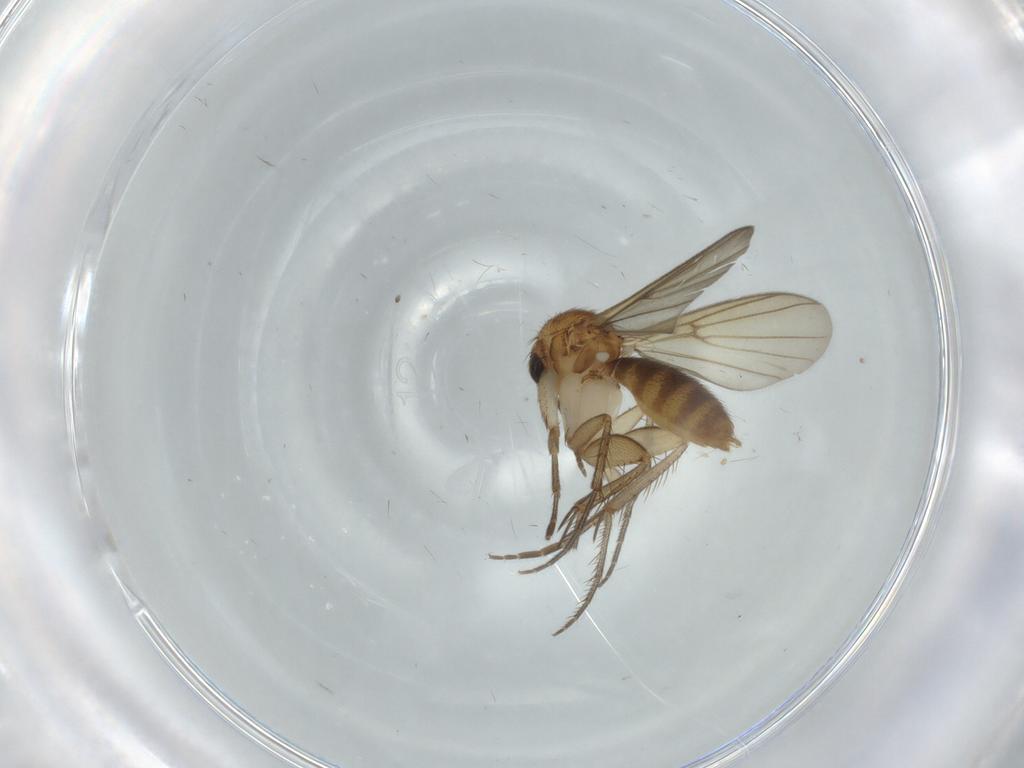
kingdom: Animalia
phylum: Arthropoda
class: Insecta
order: Diptera
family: Mycetophilidae
